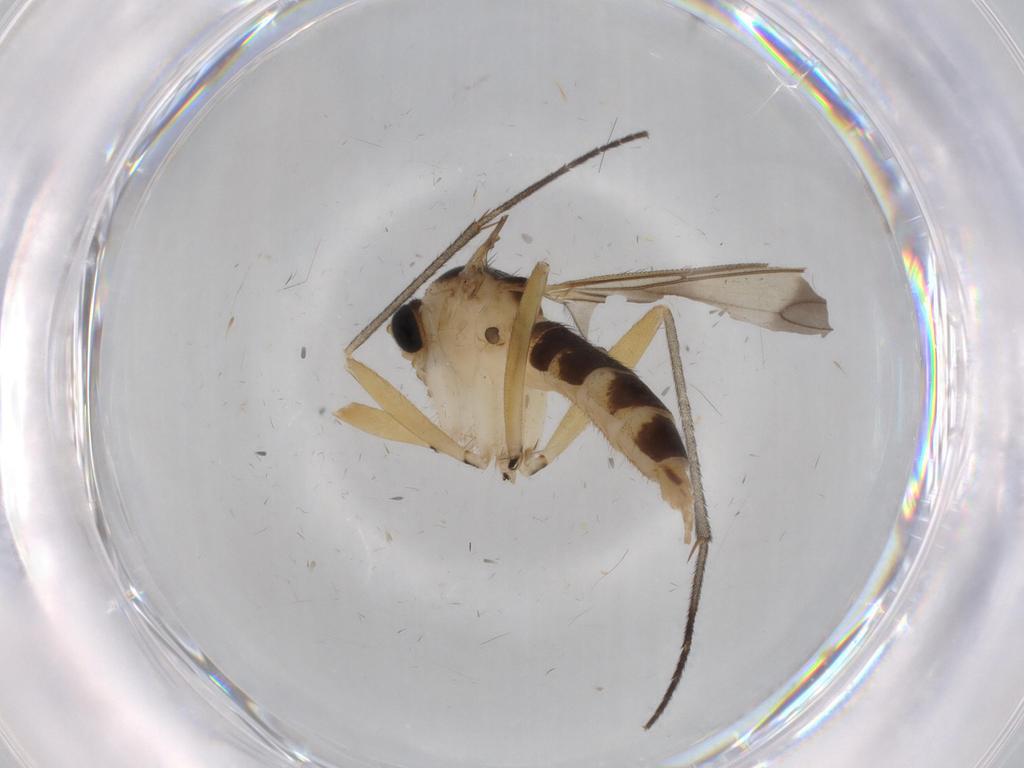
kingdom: Animalia
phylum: Arthropoda
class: Insecta
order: Diptera
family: Sciaridae
